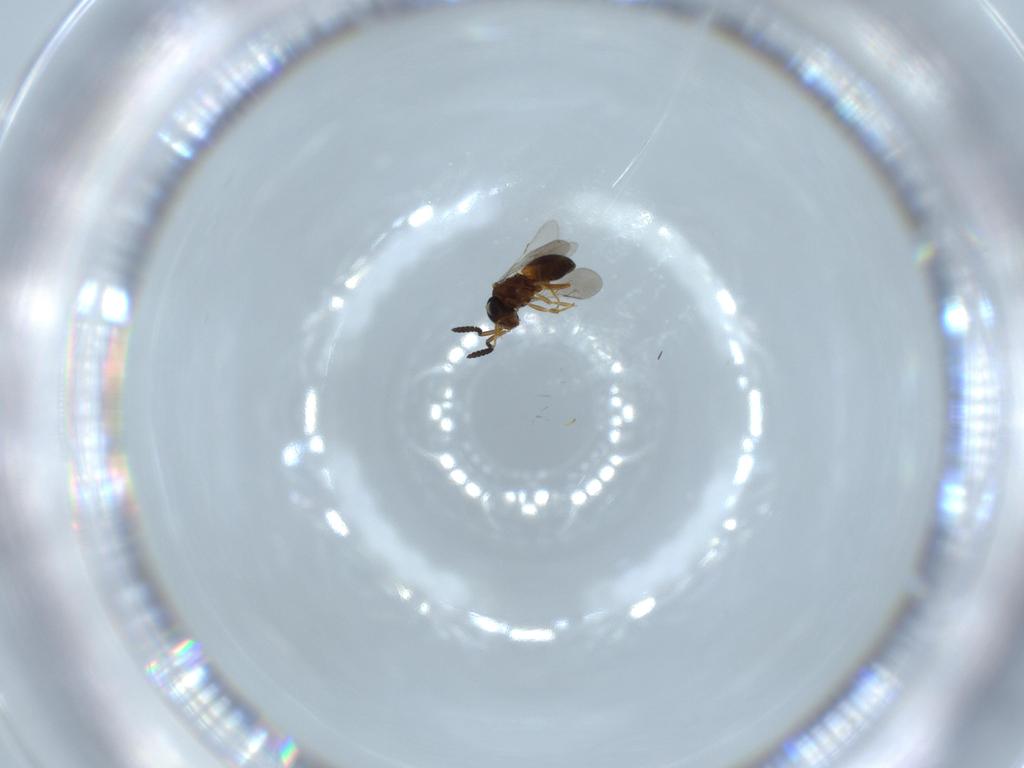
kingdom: Animalia
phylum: Arthropoda
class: Insecta
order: Hymenoptera
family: Scelionidae
